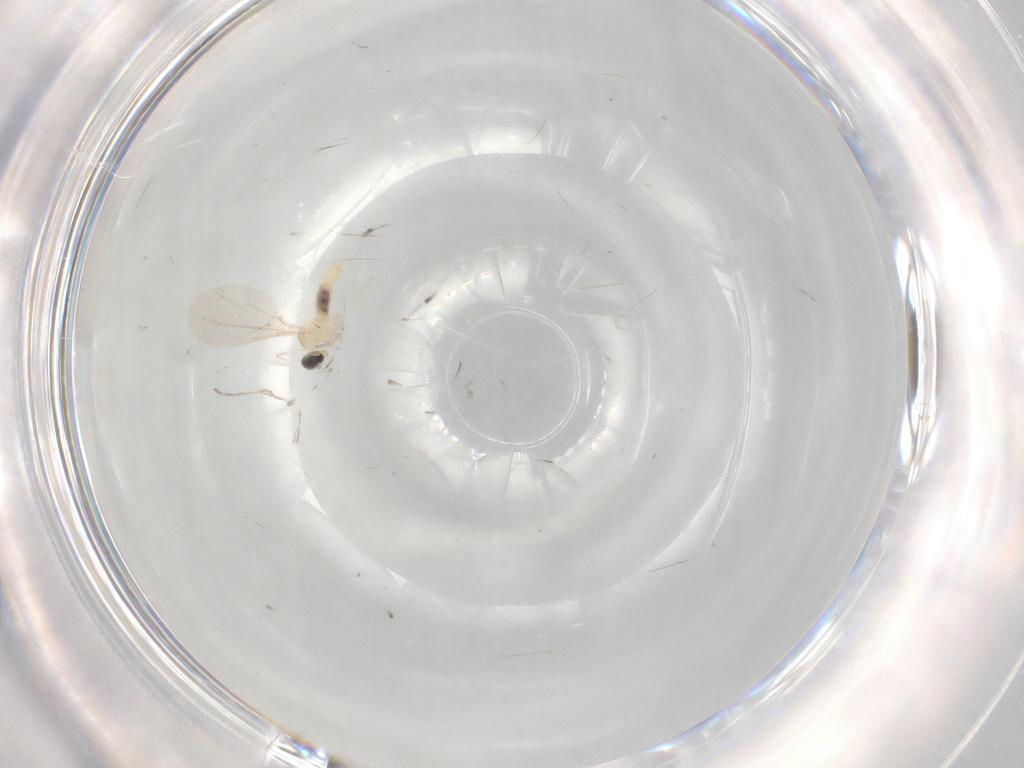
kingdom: Animalia
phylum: Arthropoda
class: Insecta
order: Diptera
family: Cecidomyiidae
